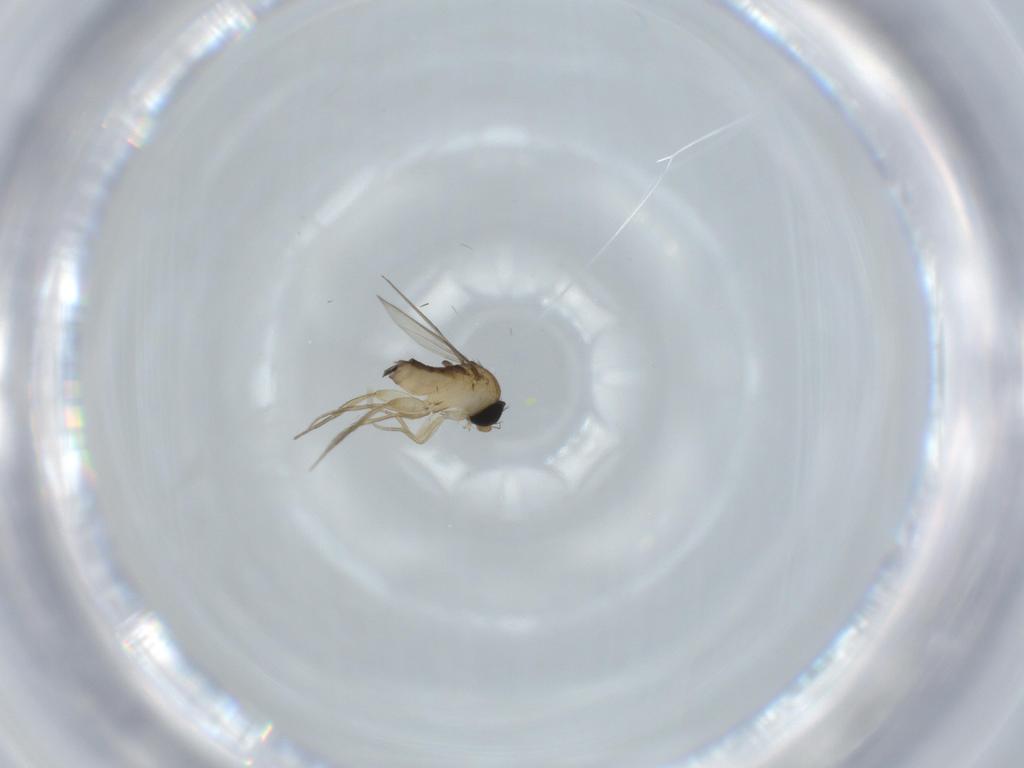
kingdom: Animalia
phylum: Arthropoda
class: Insecta
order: Diptera
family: Phoridae
